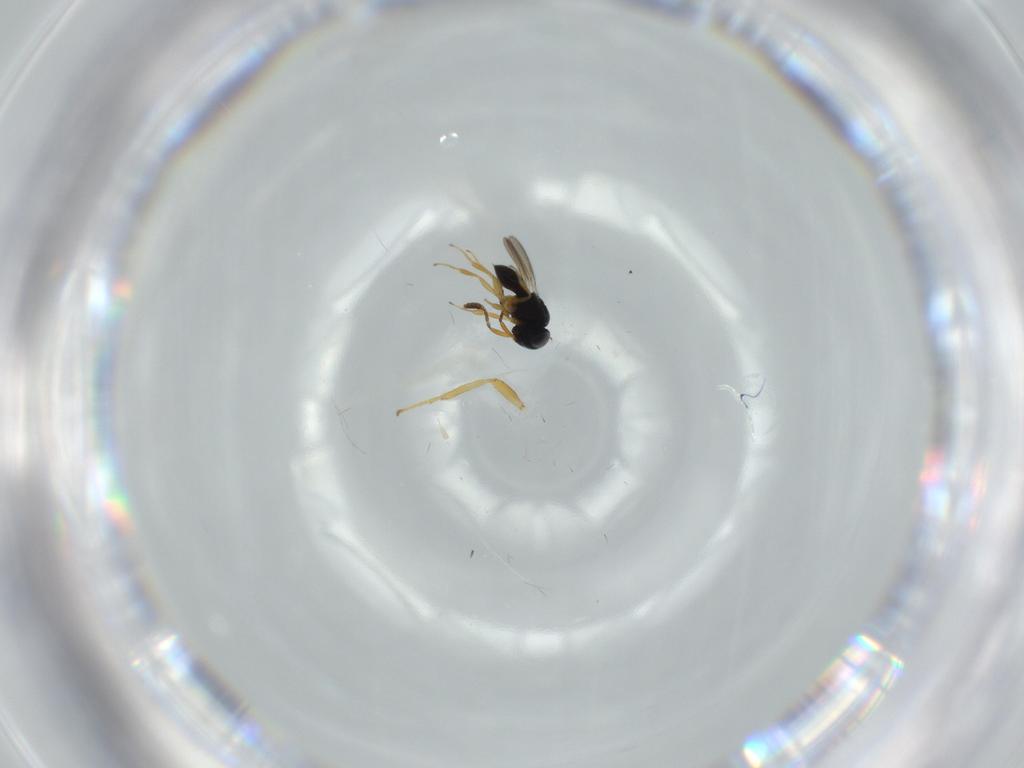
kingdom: Animalia
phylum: Arthropoda
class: Insecta
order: Hymenoptera
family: Scelionidae
